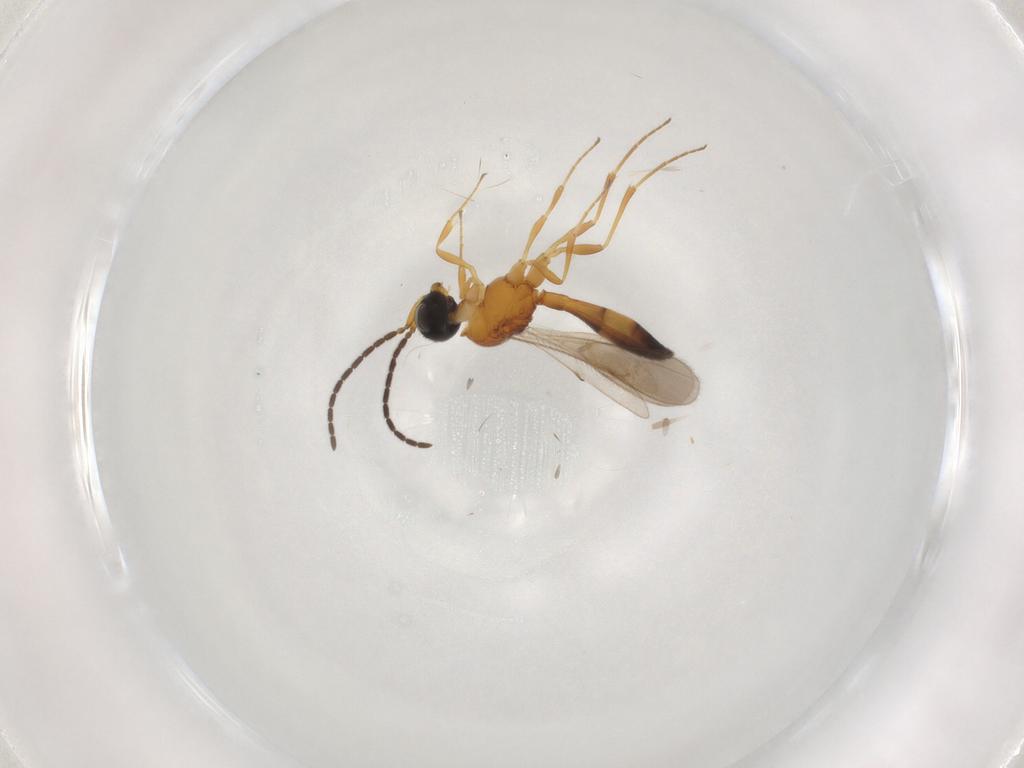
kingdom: Animalia
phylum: Arthropoda
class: Insecta
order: Hymenoptera
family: Scelionidae
